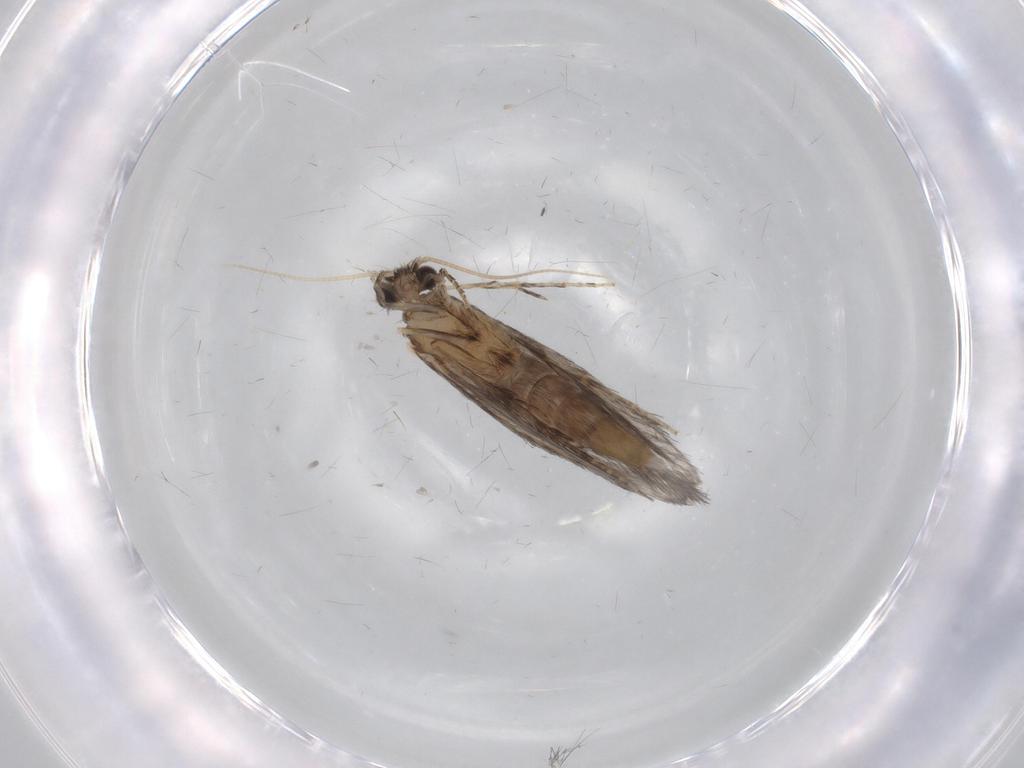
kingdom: Animalia
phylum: Arthropoda
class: Insecta
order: Trichoptera
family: Hydroptilidae
